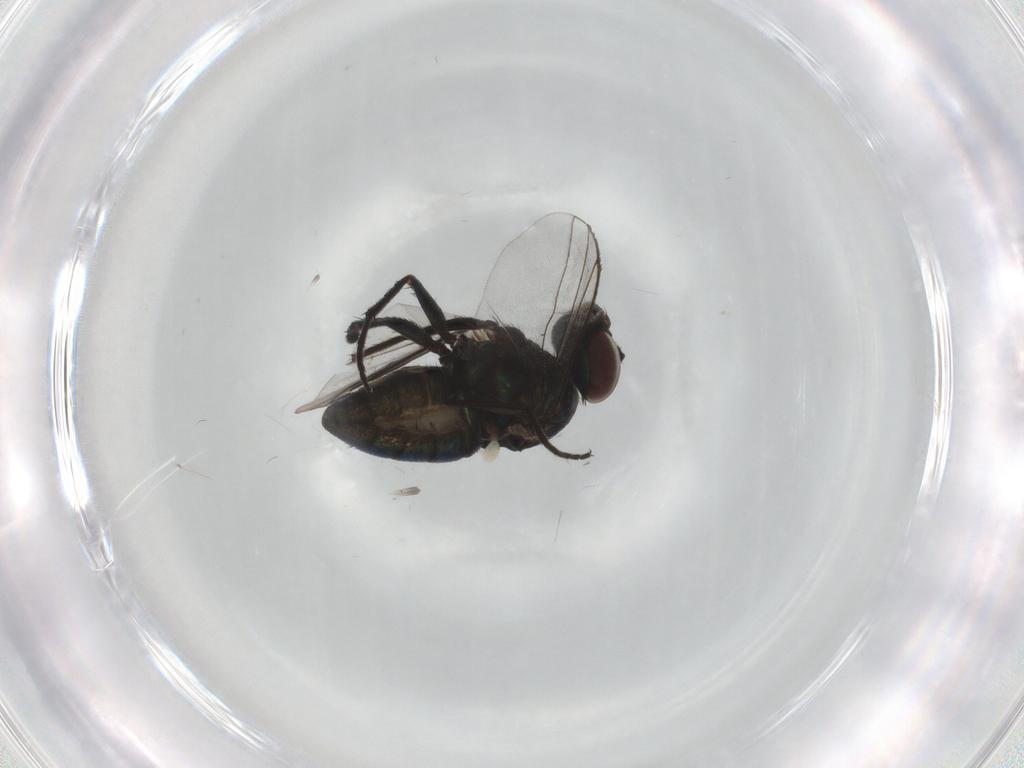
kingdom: Animalia
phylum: Arthropoda
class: Insecta
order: Diptera
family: Dolichopodidae
